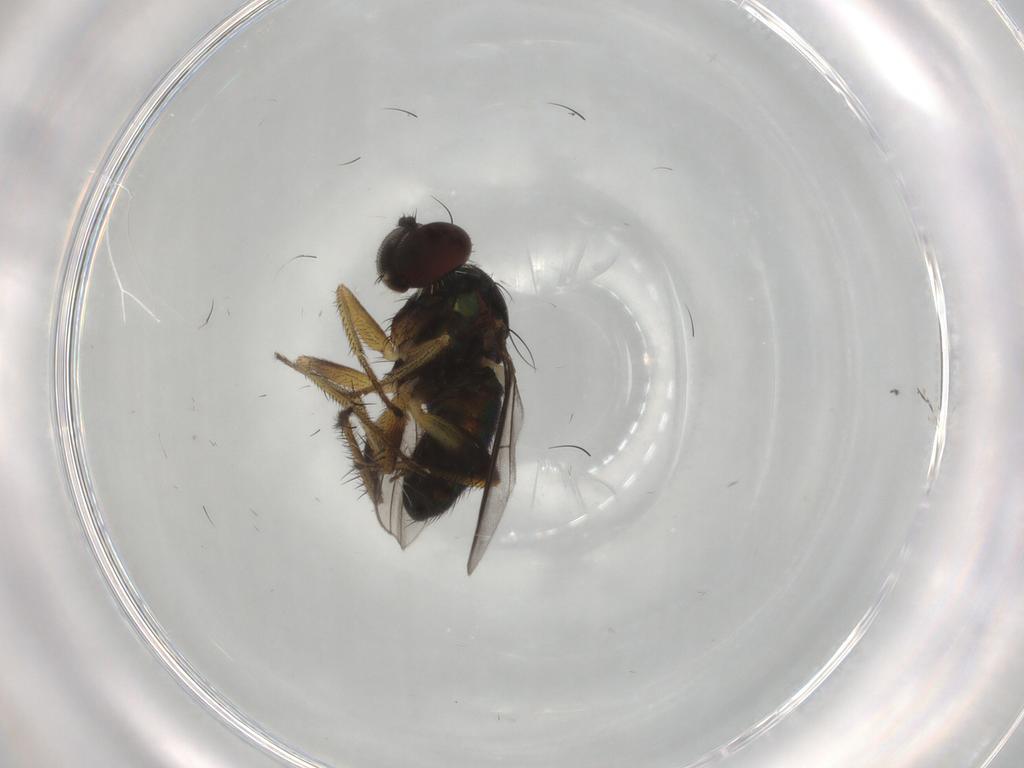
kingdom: Animalia
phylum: Arthropoda
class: Insecta
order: Diptera
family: Dolichopodidae
